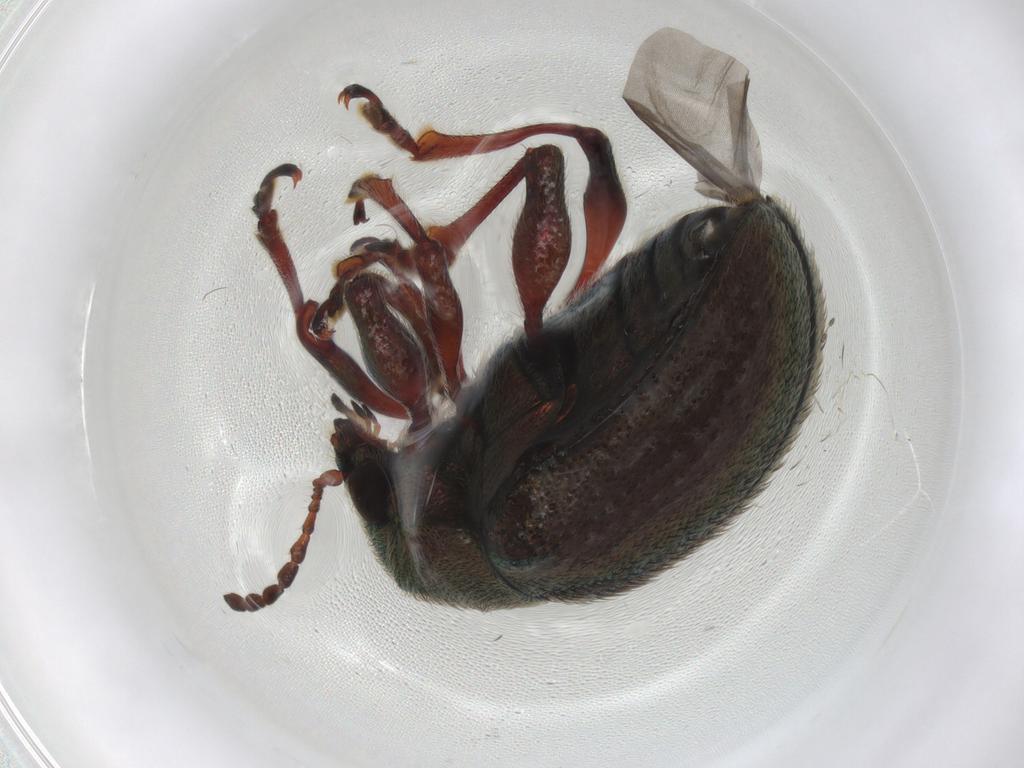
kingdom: Animalia
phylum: Arthropoda
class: Insecta
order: Coleoptera
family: Chrysomelidae
